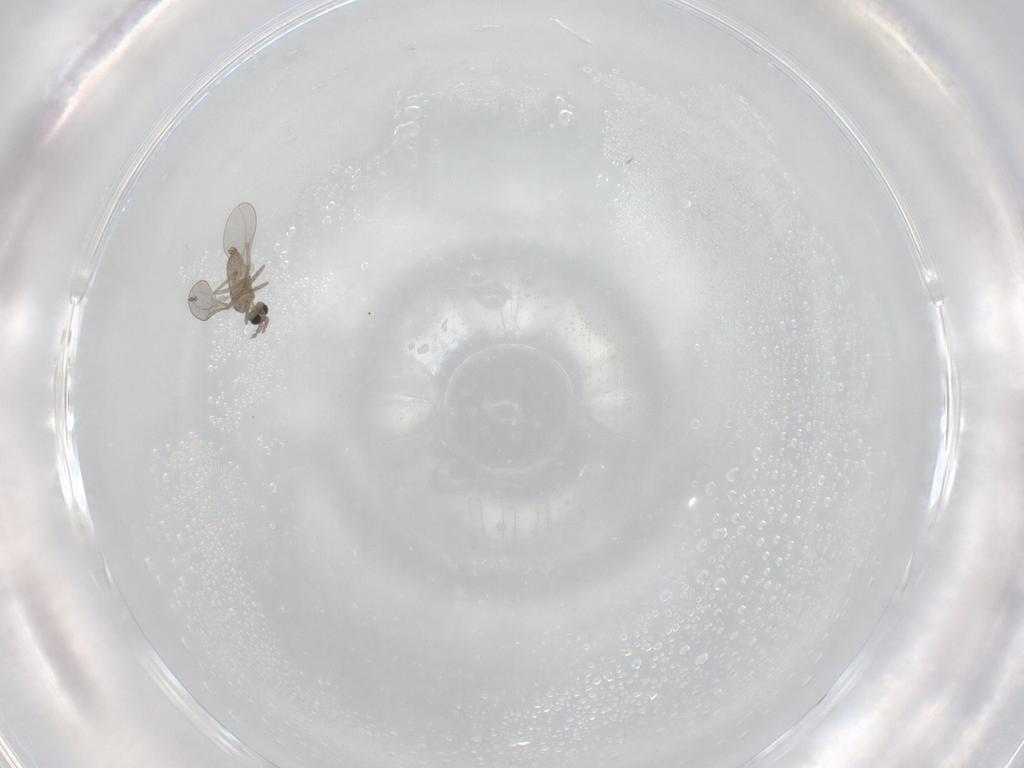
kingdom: Animalia
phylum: Arthropoda
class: Insecta
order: Diptera
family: Cecidomyiidae
